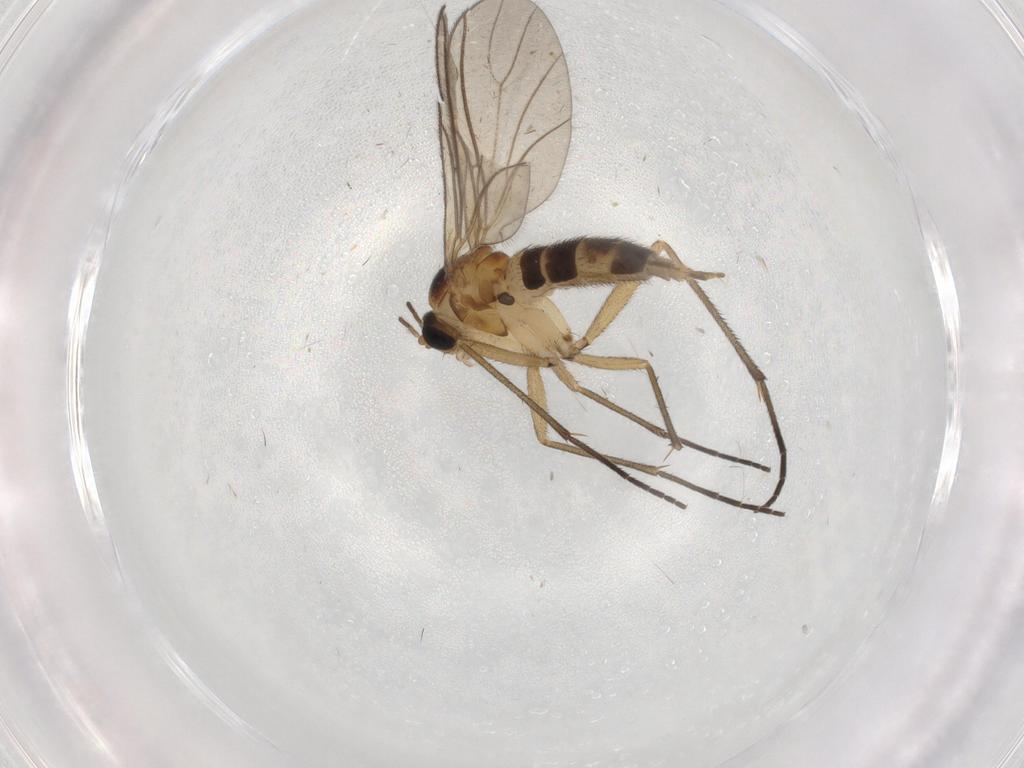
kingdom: Animalia
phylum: Arthropoda
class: Insecta
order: Diptera
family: Sciaridae
